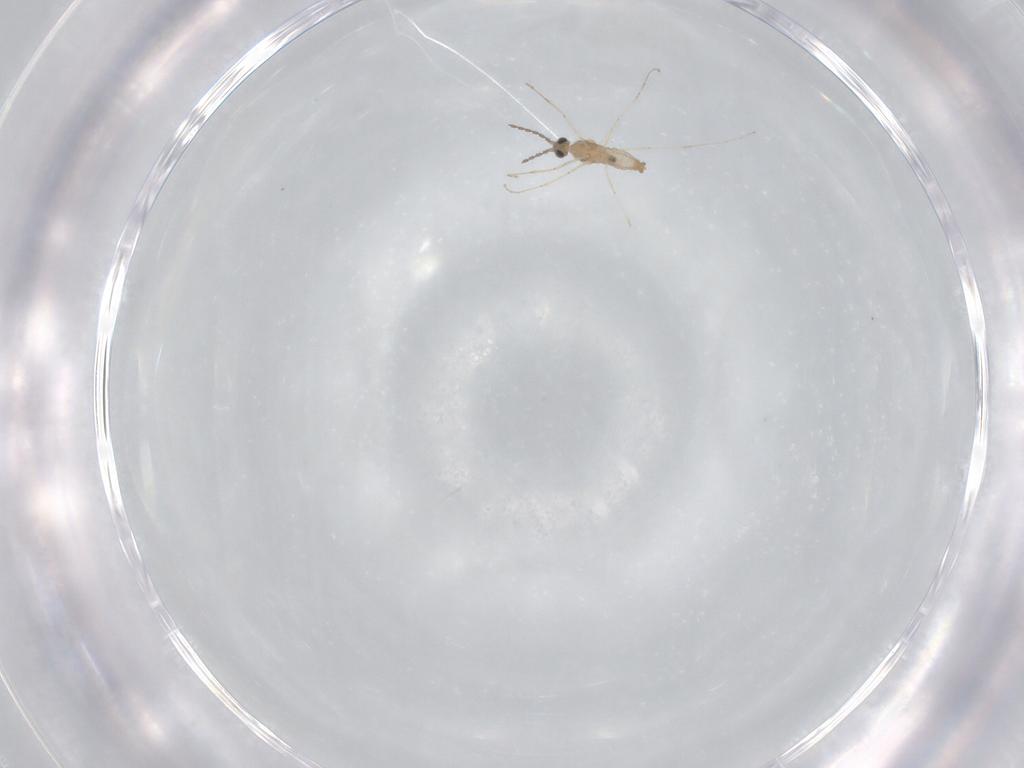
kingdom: Animalia
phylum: Arthropoda
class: Insecta
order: Diptera
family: Cecidomyiidae
